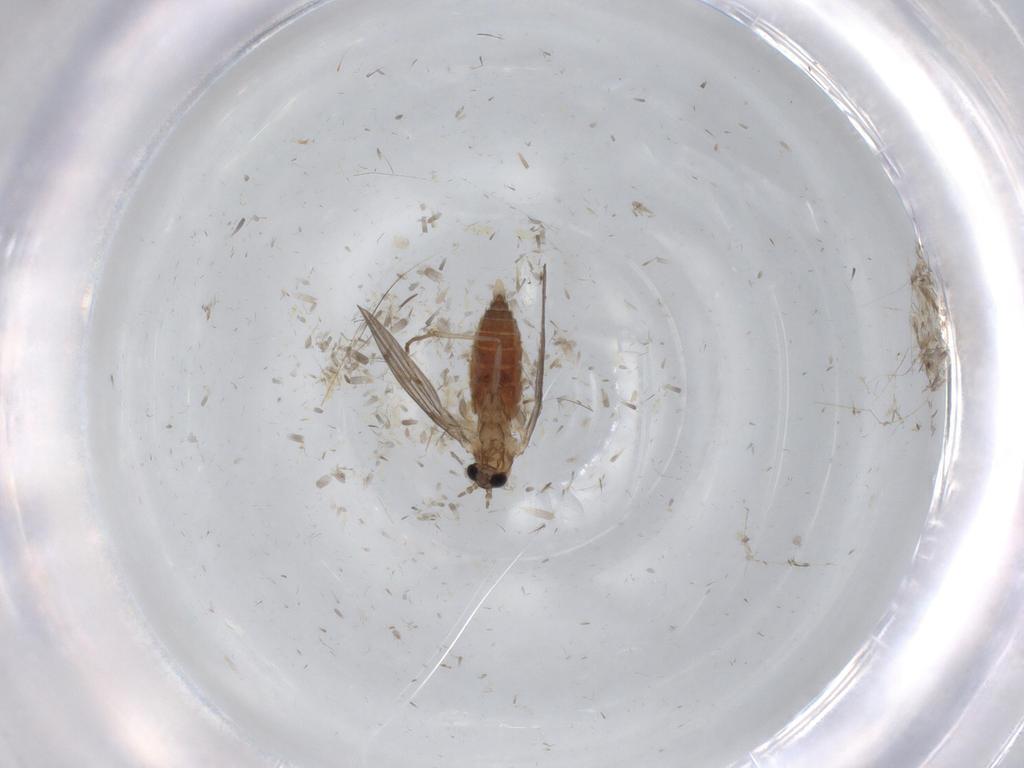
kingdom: Animalia
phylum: Arthropoda
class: Insecta
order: Diptera
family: Chironomidae
